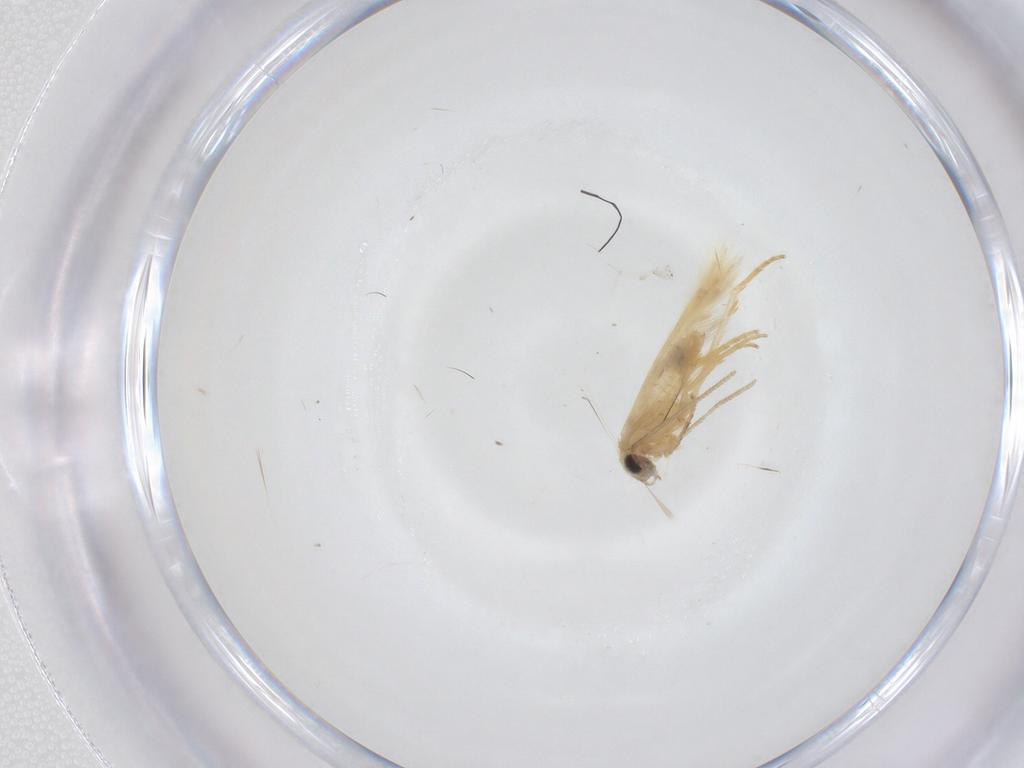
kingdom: Animalia
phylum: Arthropoda
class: Insecta
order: Lepidoptera
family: Nepticulidae
